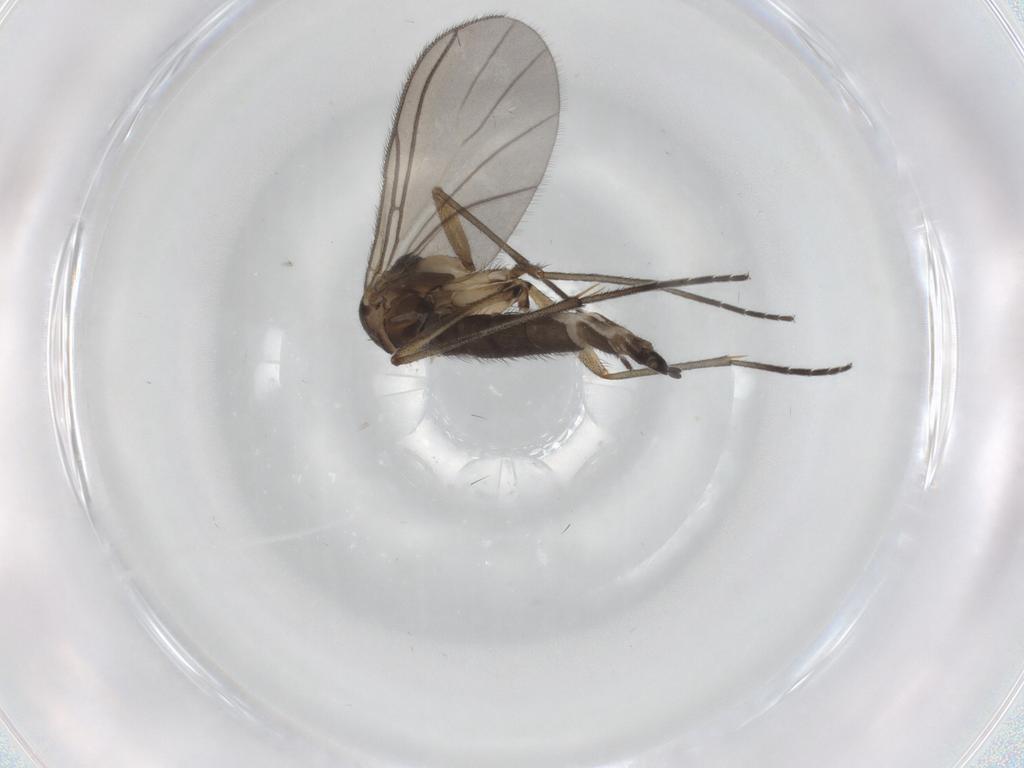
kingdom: Animalia
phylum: Arthropoda
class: Insecta
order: Diptera
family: Sciaridae
